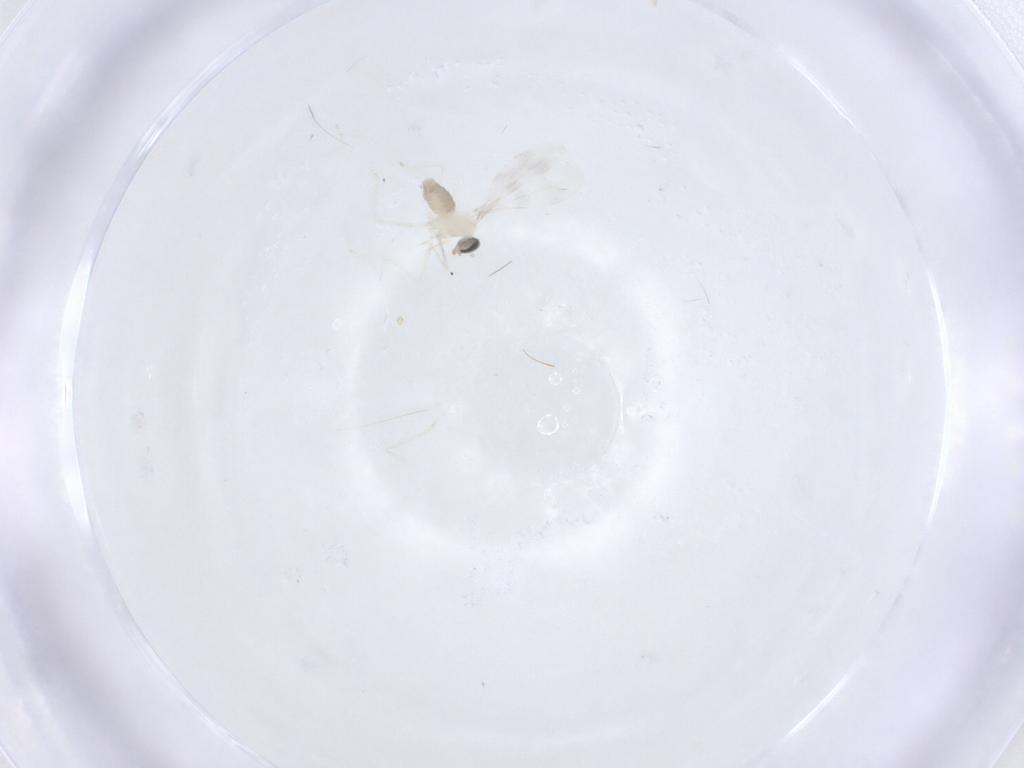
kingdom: Animalia
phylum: Arthropoda
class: Insecta
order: Diptera
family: Cecidomyiidae
